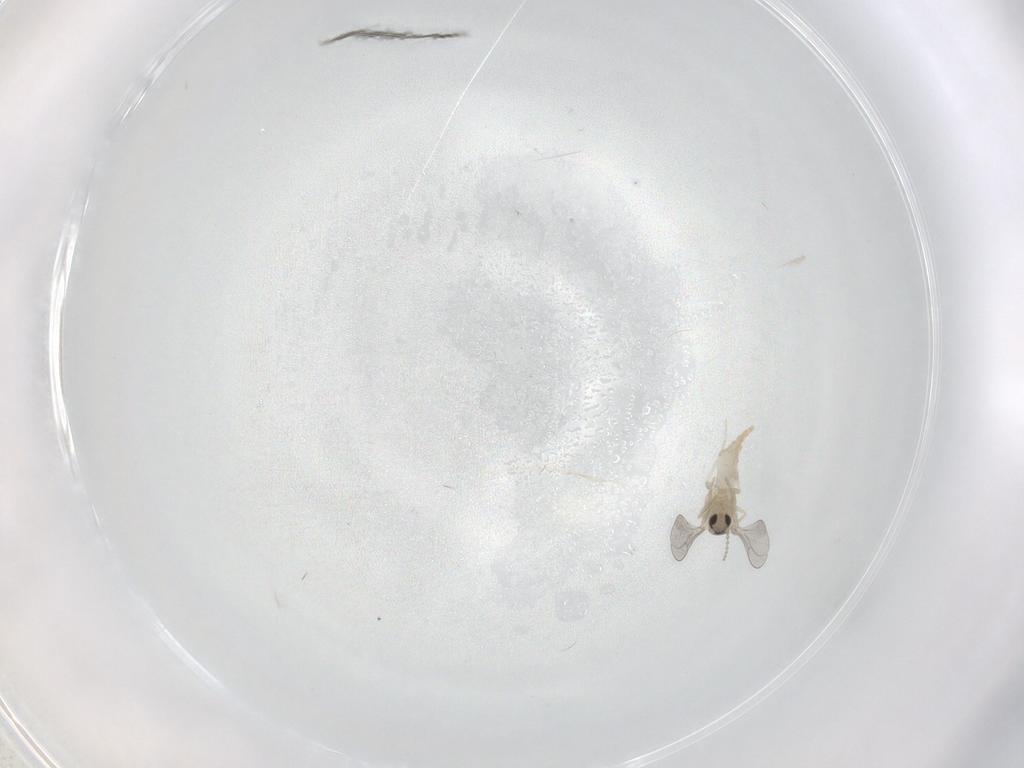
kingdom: Animalia
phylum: Arthropoda
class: Insecta
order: Diptera
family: Cecidomyiidae
